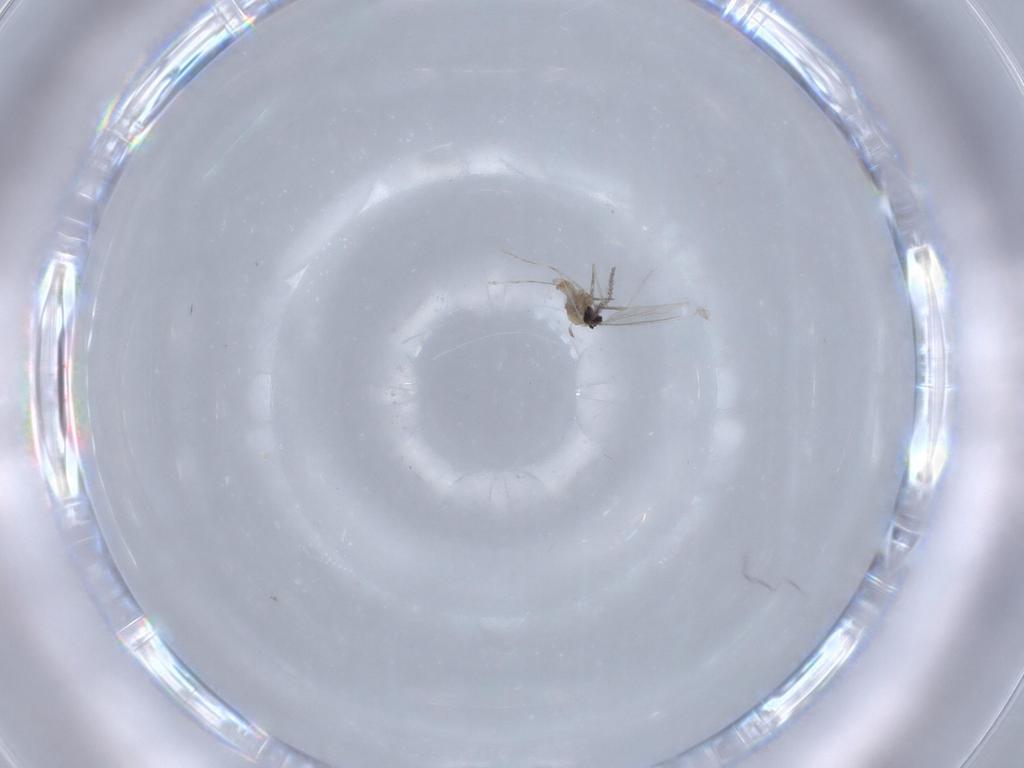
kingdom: Animalia
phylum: Arthropoda
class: Insecta
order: Diptera
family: Cecidomyiidae
